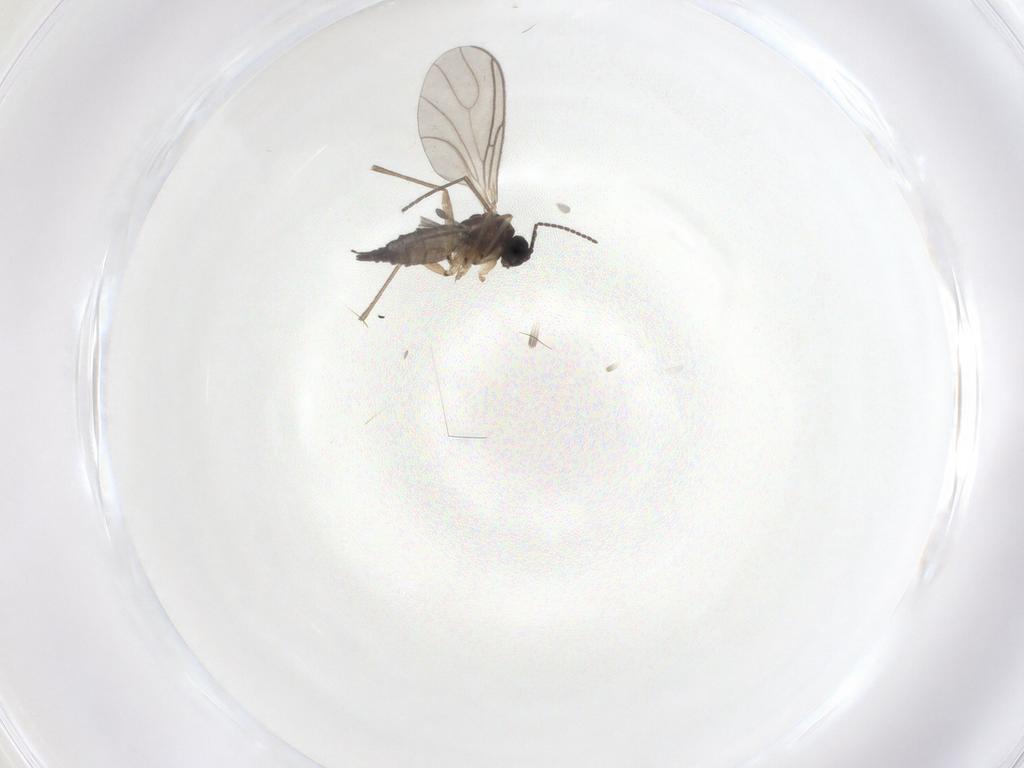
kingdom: Animalia
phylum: Arthropoda
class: Insecta
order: Diptera
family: Sciaridae
